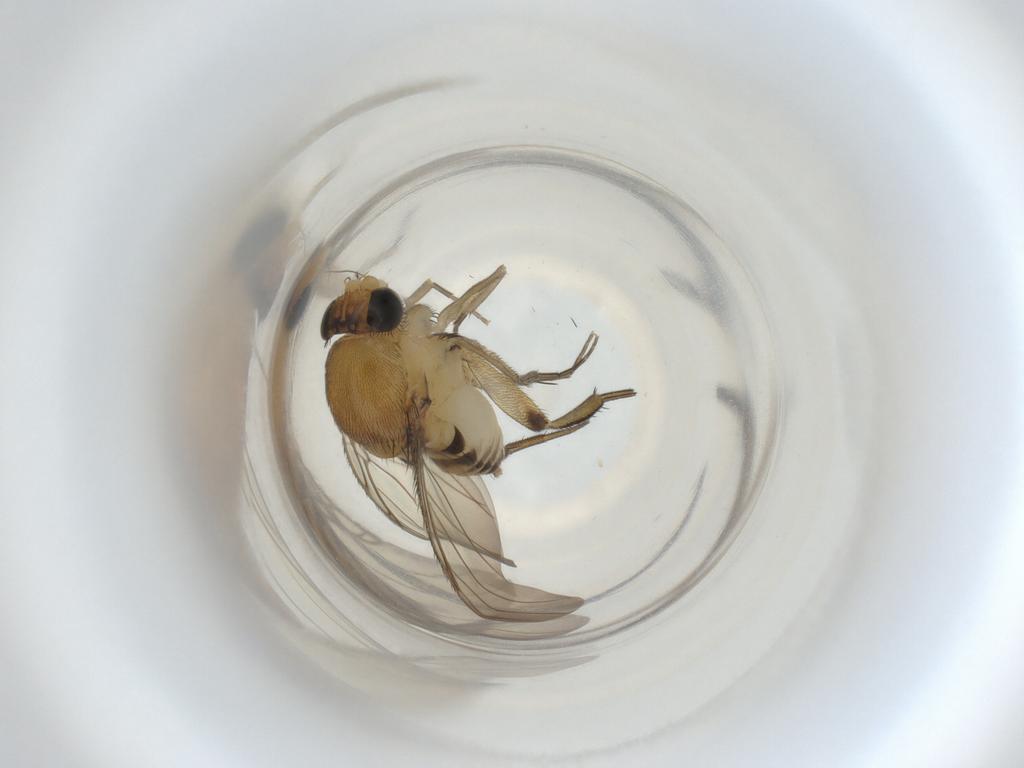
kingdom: Animalia
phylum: Arthropoda
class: Insecta
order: Diptera
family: Phoridae
